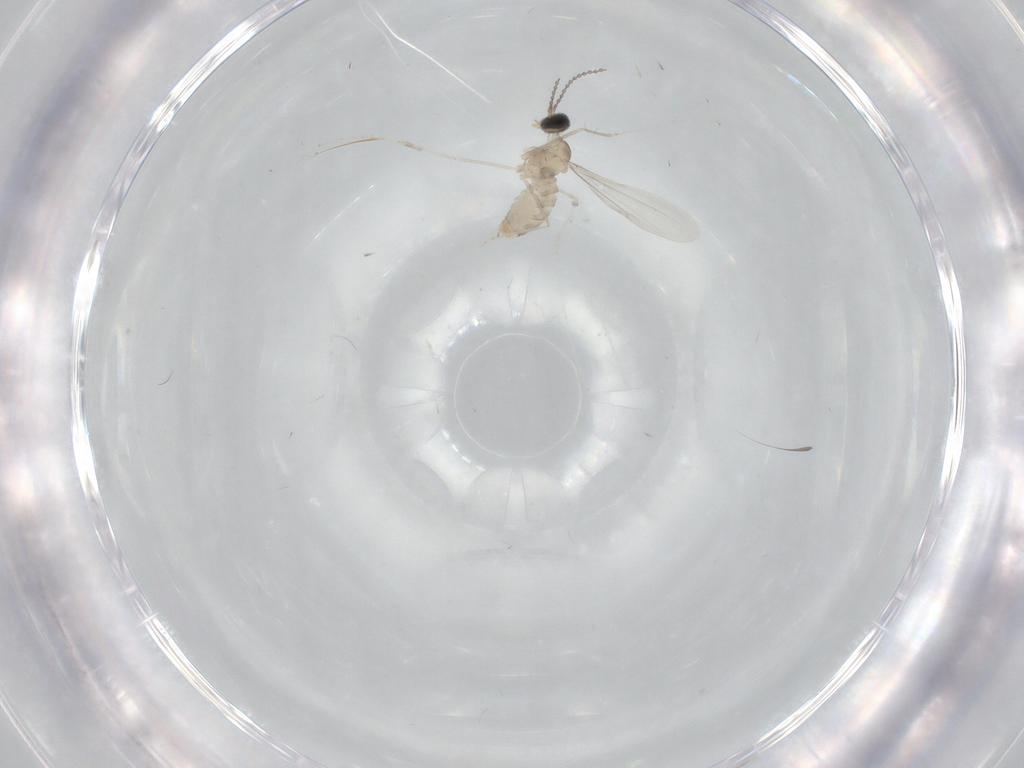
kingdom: Animalia
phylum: Arthropoda
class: Insecta
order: Diptera
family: Asilidae
